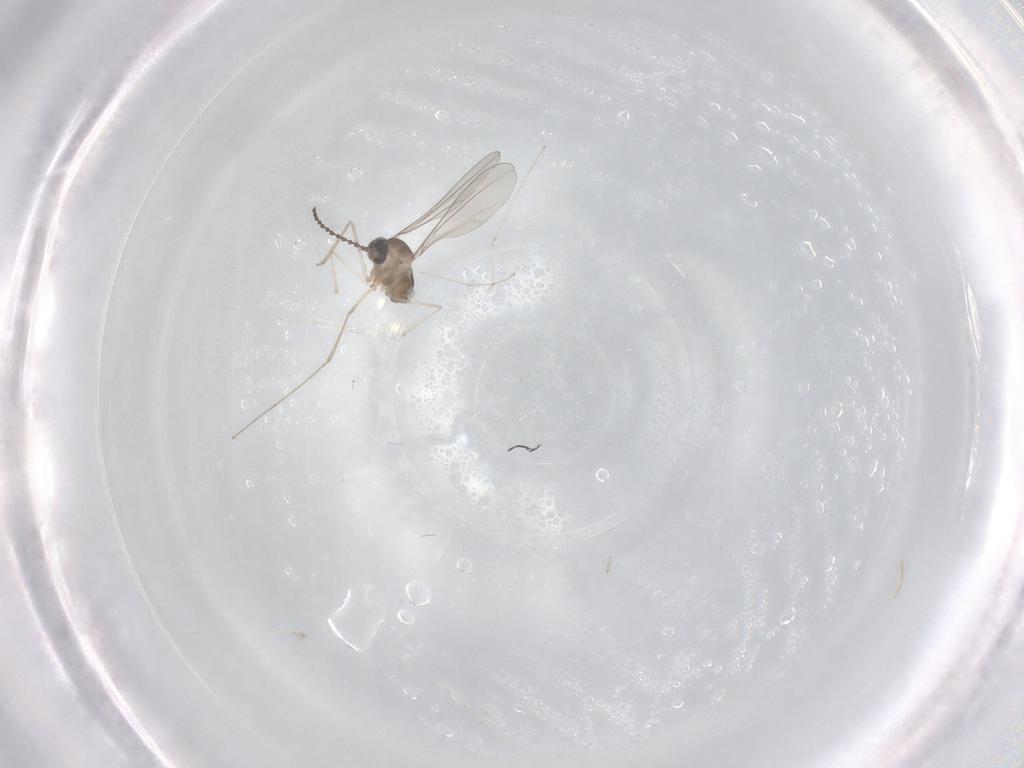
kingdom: Animalia
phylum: Arthropoda
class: Insecta
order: Diptera
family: Cecidomyiidae
